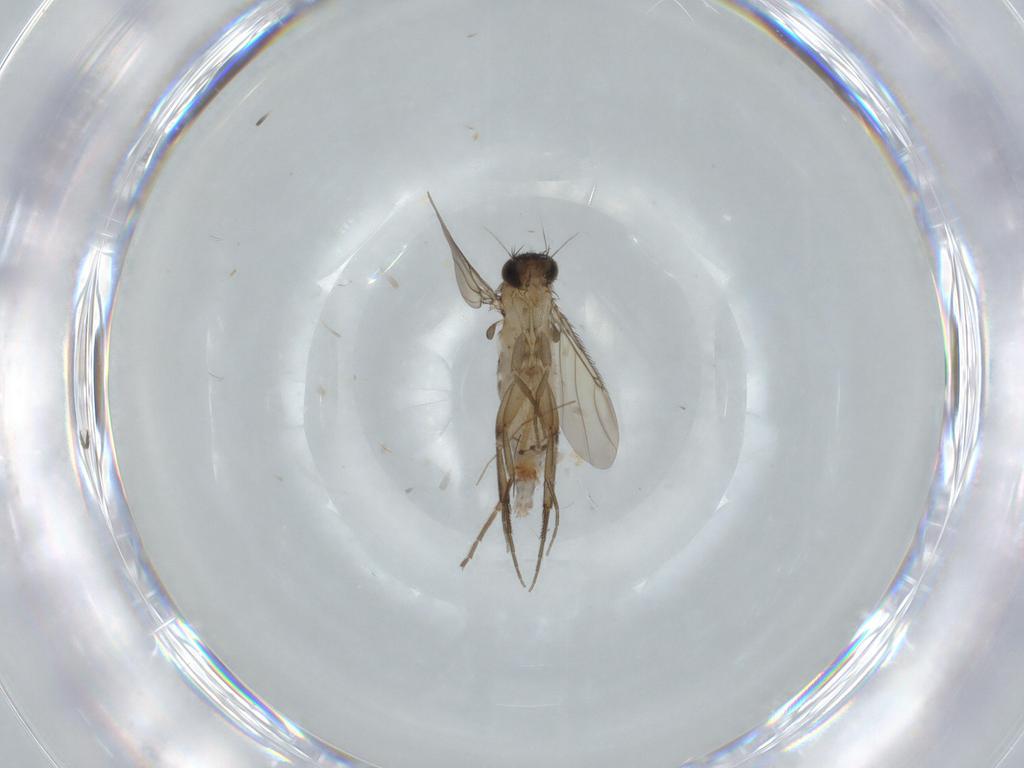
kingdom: Animalia
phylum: Arthropoda
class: Insecta
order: Diptera
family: Phoridae
